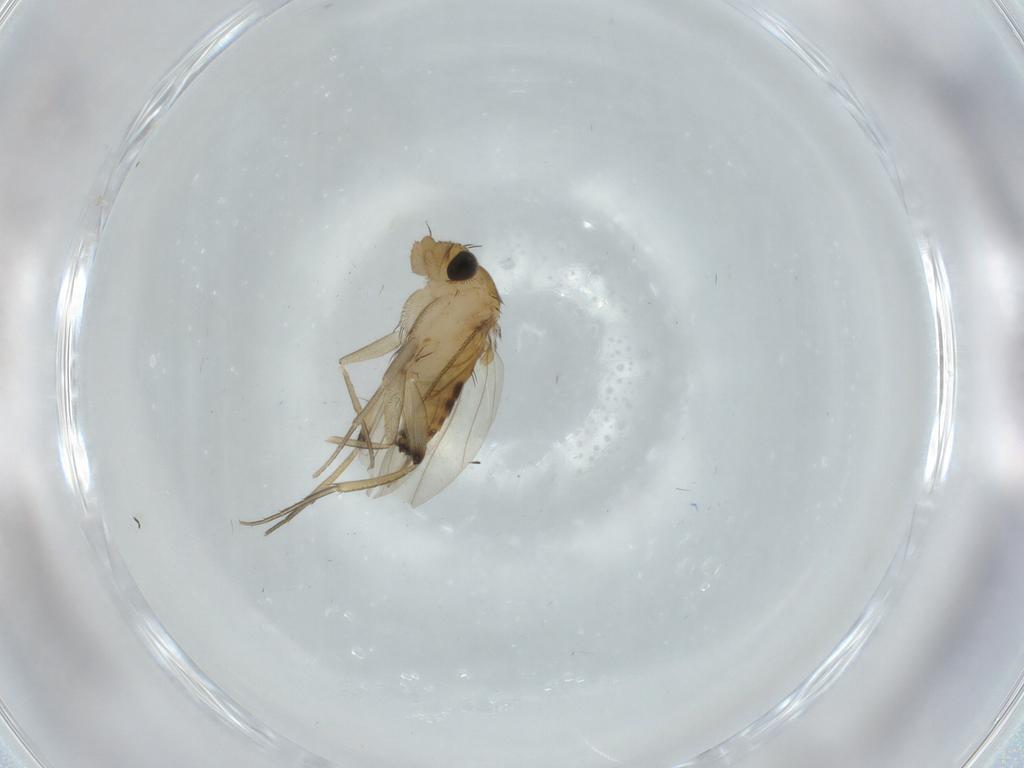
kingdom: Animalia
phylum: Arthropoda
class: Insecta
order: Diptera
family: Phoridae
